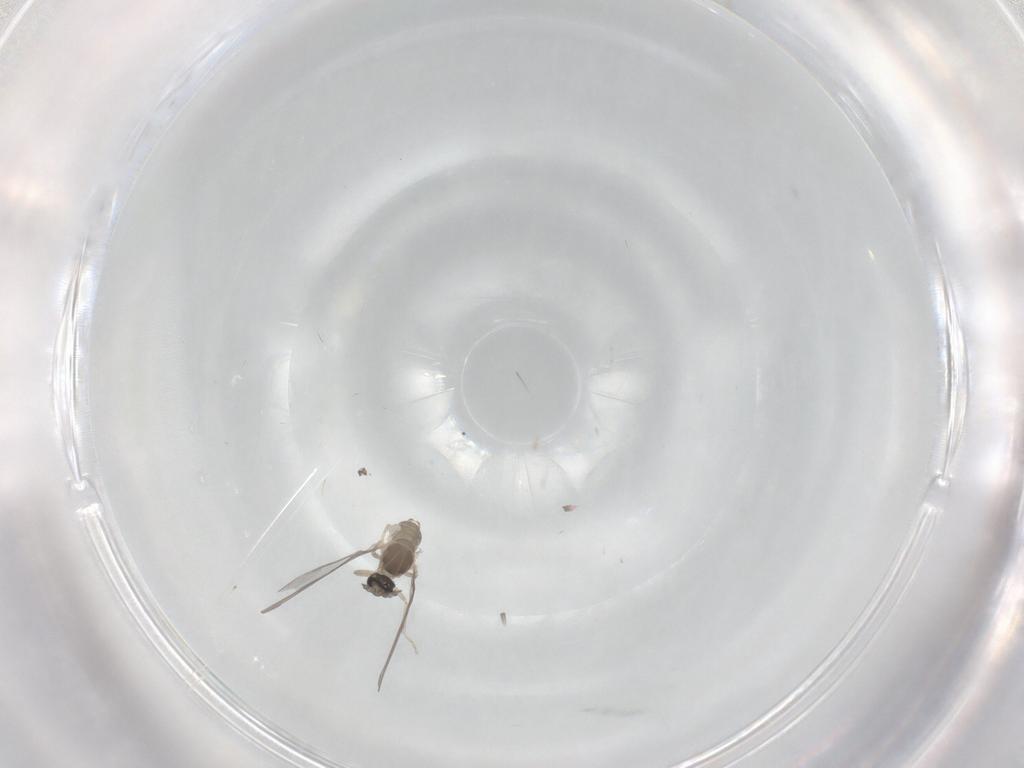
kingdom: Animalia
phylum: Arthropoda
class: Insecta
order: Diptera
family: Cecidomyiidae
